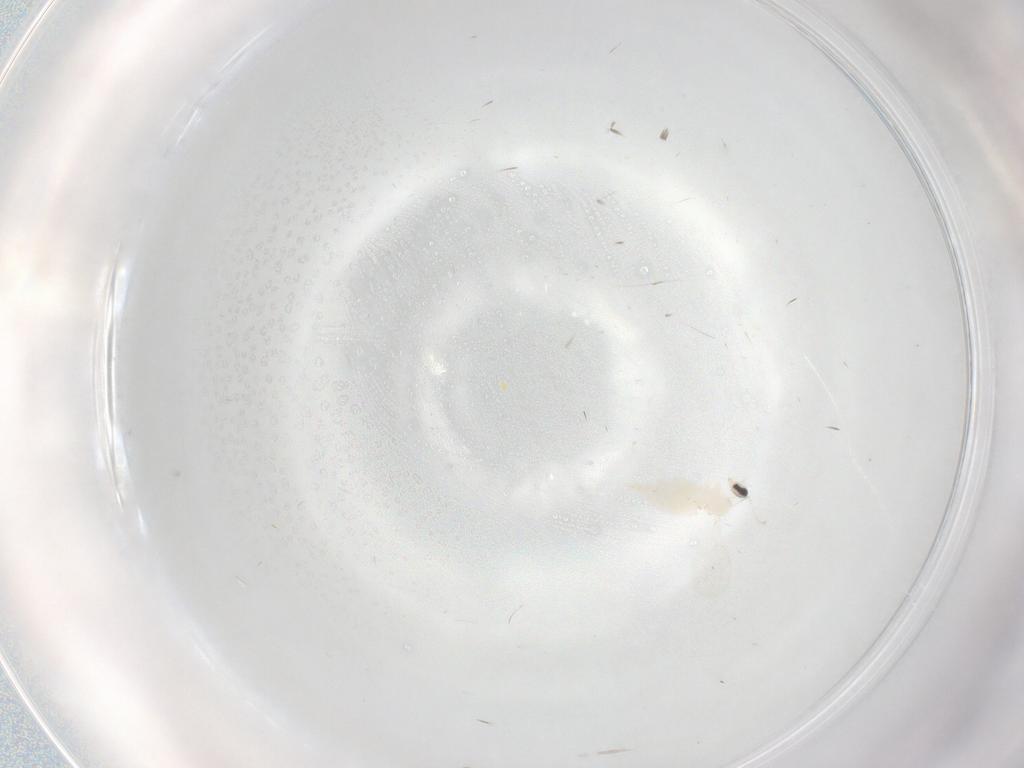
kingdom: Animalia
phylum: Arthropoda
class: Insecta
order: Diptera
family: Cecidomyiidae
